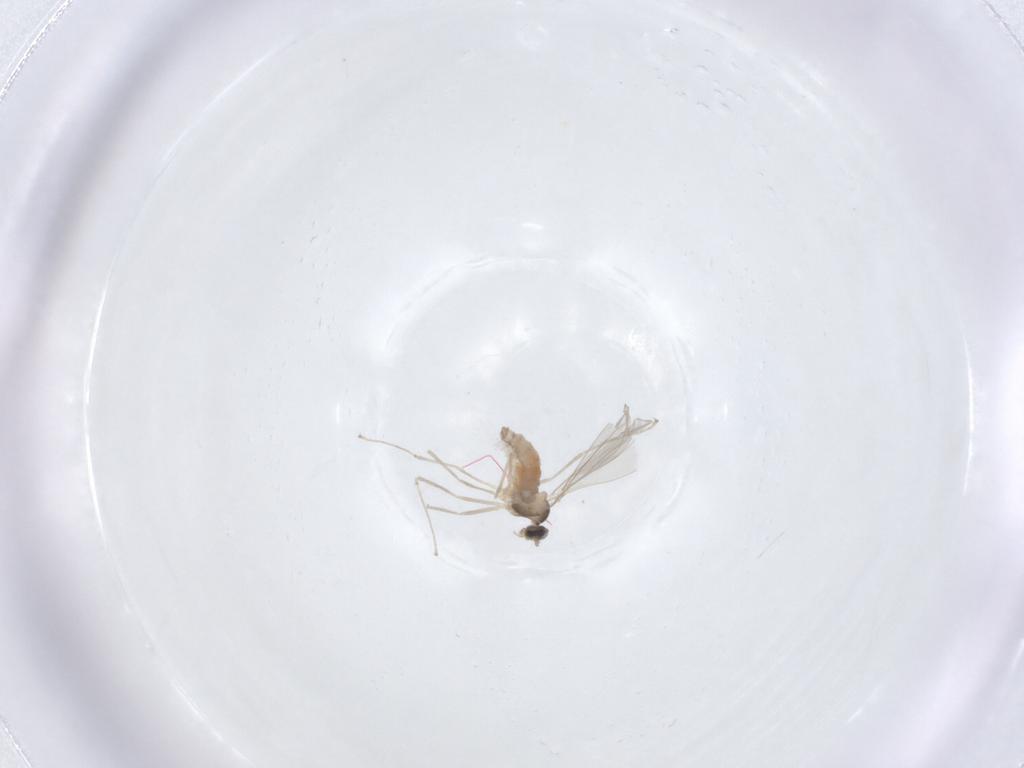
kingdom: Animalia
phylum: Arthropoda
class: Insecta
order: Diptera
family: Cecidomyiidae
